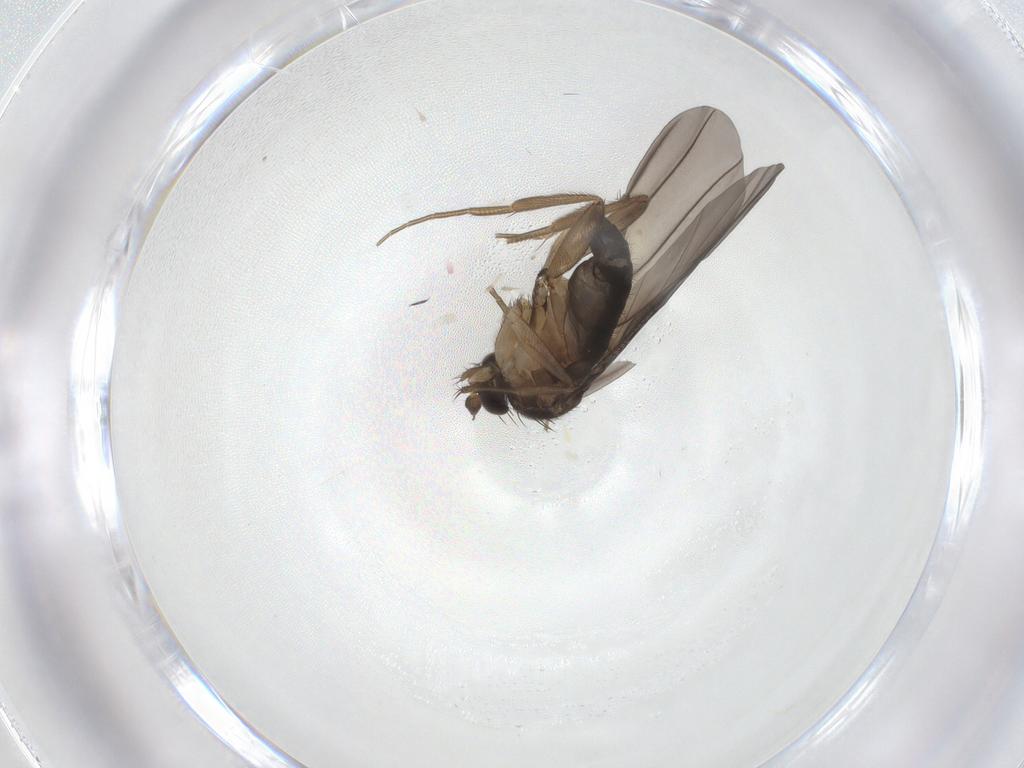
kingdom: Animalia
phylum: Arthropoda
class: Insecta
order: Diptera
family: Phoridae
